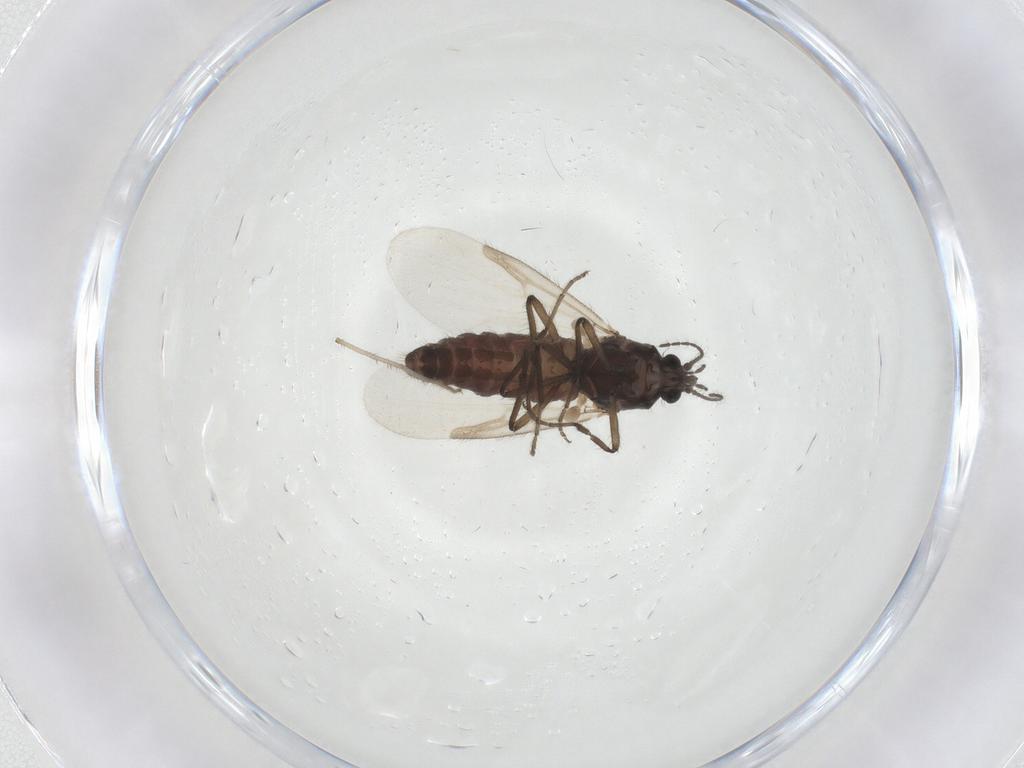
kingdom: Animalia
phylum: Arthropoda
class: Insecta
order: Diptera
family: Ceratopogonidae
